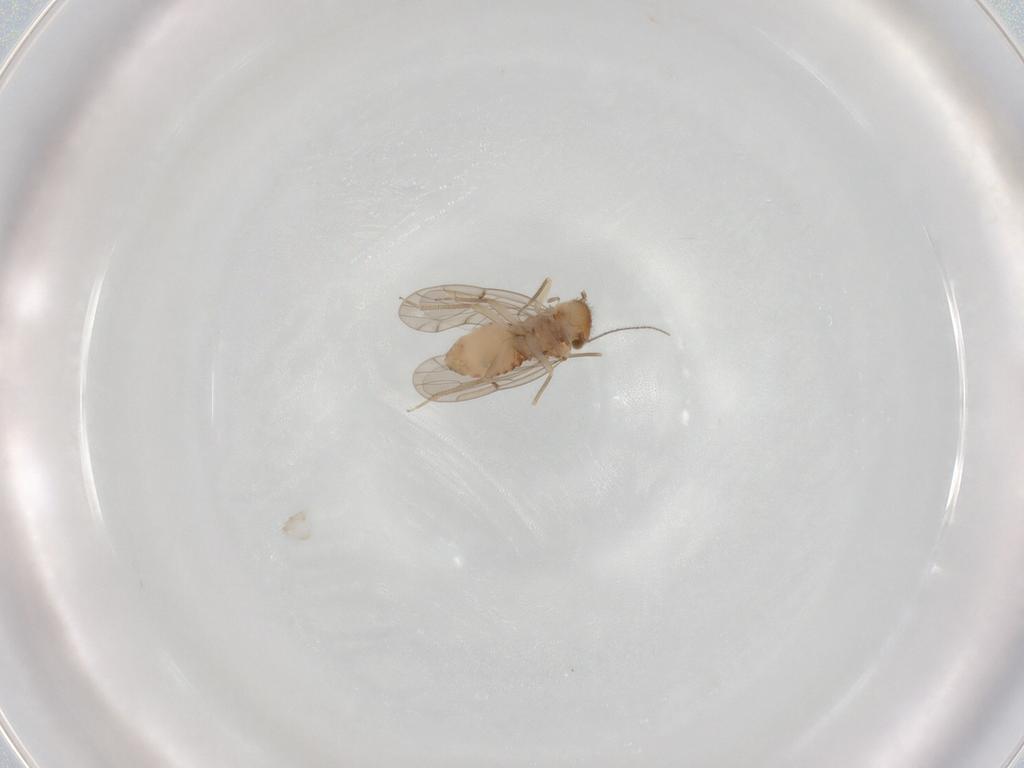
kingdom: Animalia
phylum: Arthropoda
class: Insecta
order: Psocodea
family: Ectopsocidae
